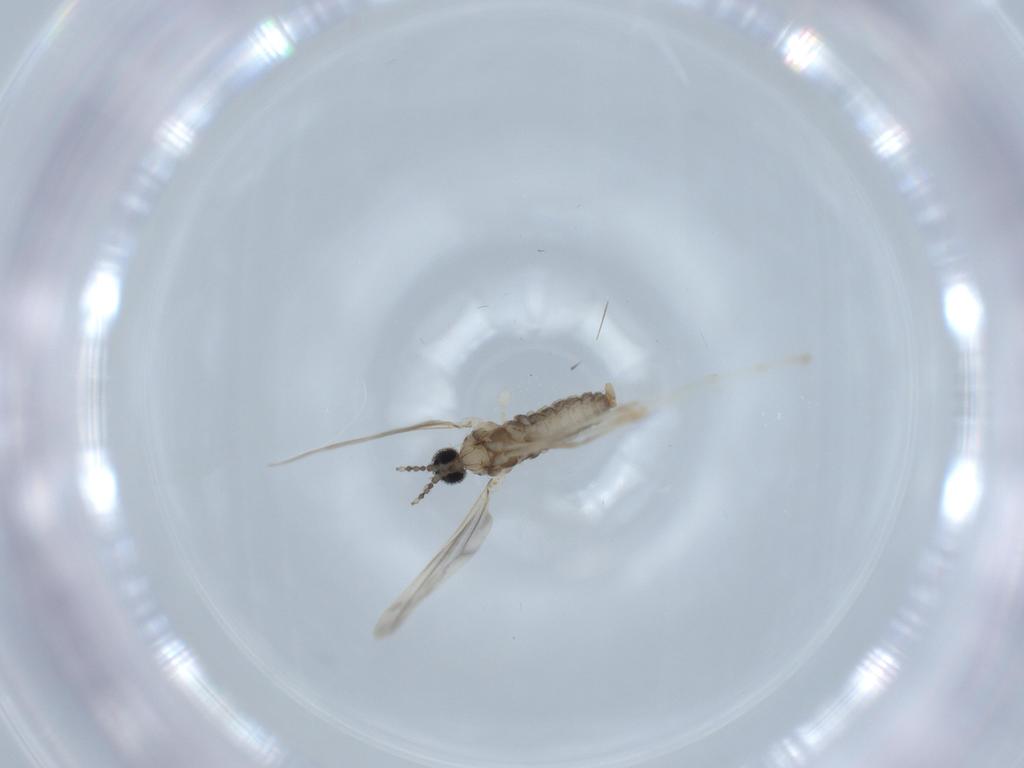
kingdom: Animalia
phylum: Arthropoda
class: Insecta
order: Diptera
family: Cecidomyiidae
